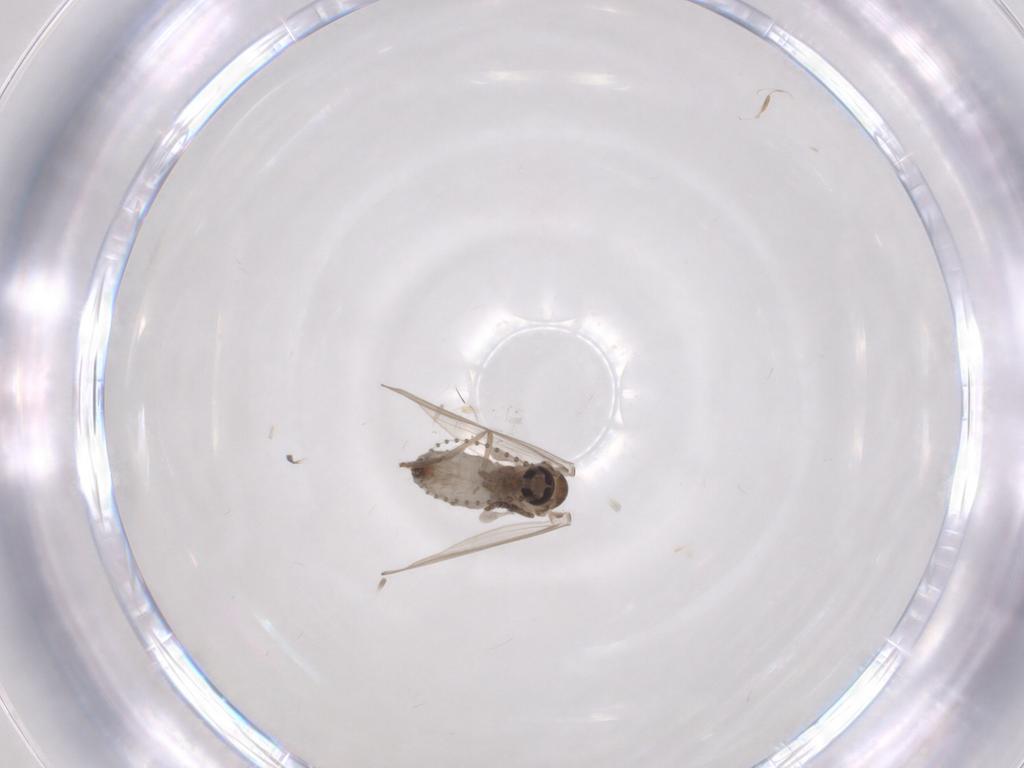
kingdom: Animalia
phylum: Arthropoda
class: Insecta
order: Diptera
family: Psychodidae
